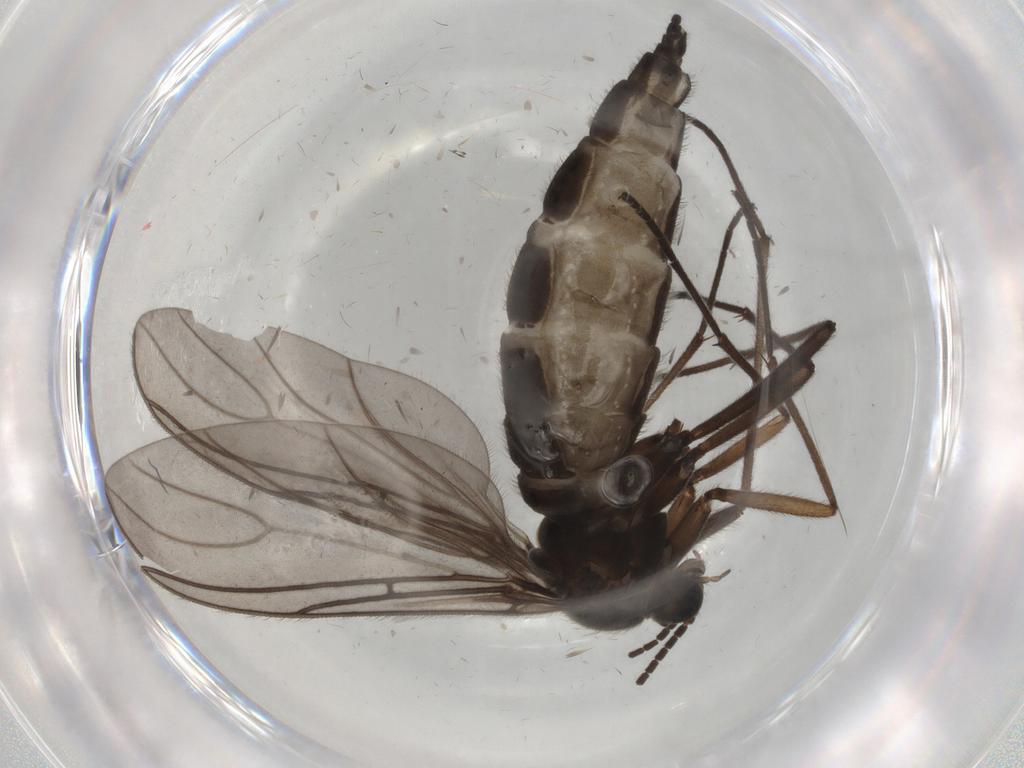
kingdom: Animalia
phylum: Arthropoda
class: Insecta
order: Diptera
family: Sciaridae
